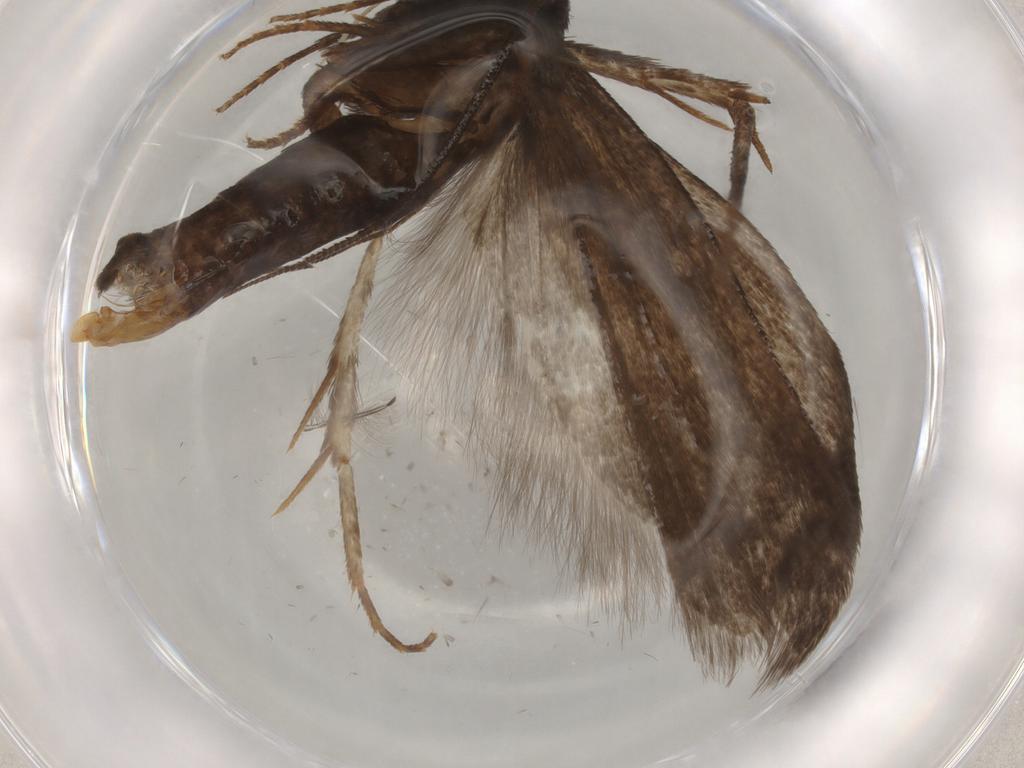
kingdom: Animalia
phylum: Arthropoda
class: Insecta
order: Lepidoptera
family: Gelechiidae
